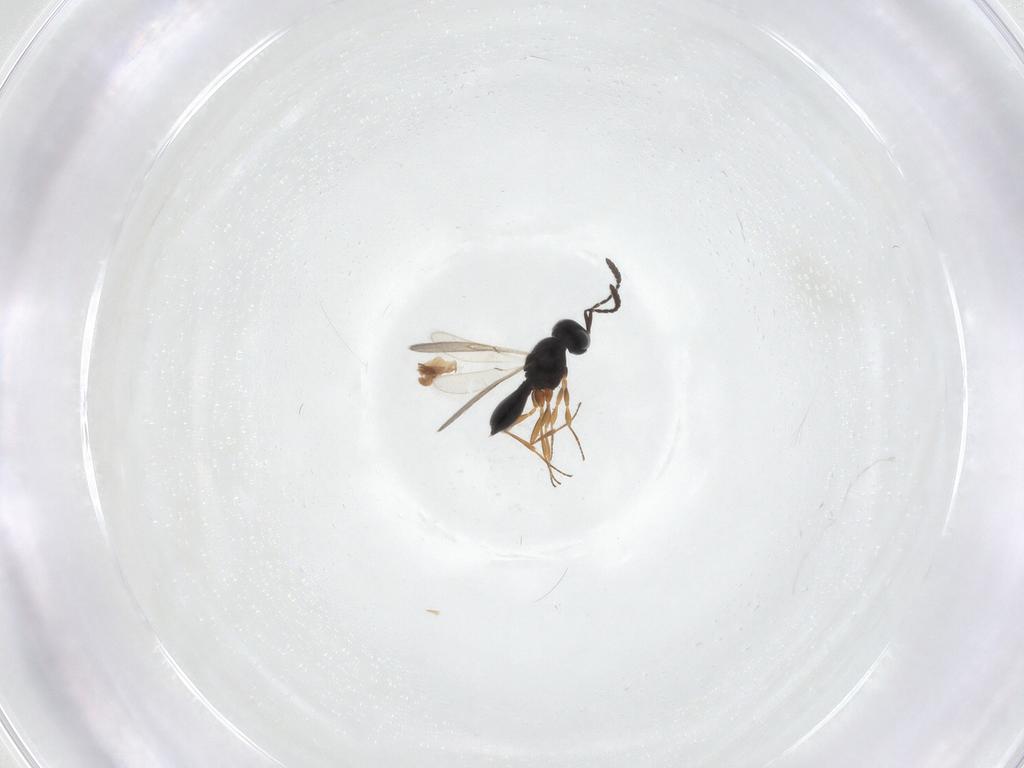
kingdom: Animalia
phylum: Arthropoda
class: Insecta
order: Hymenoptera
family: Scelionidae
